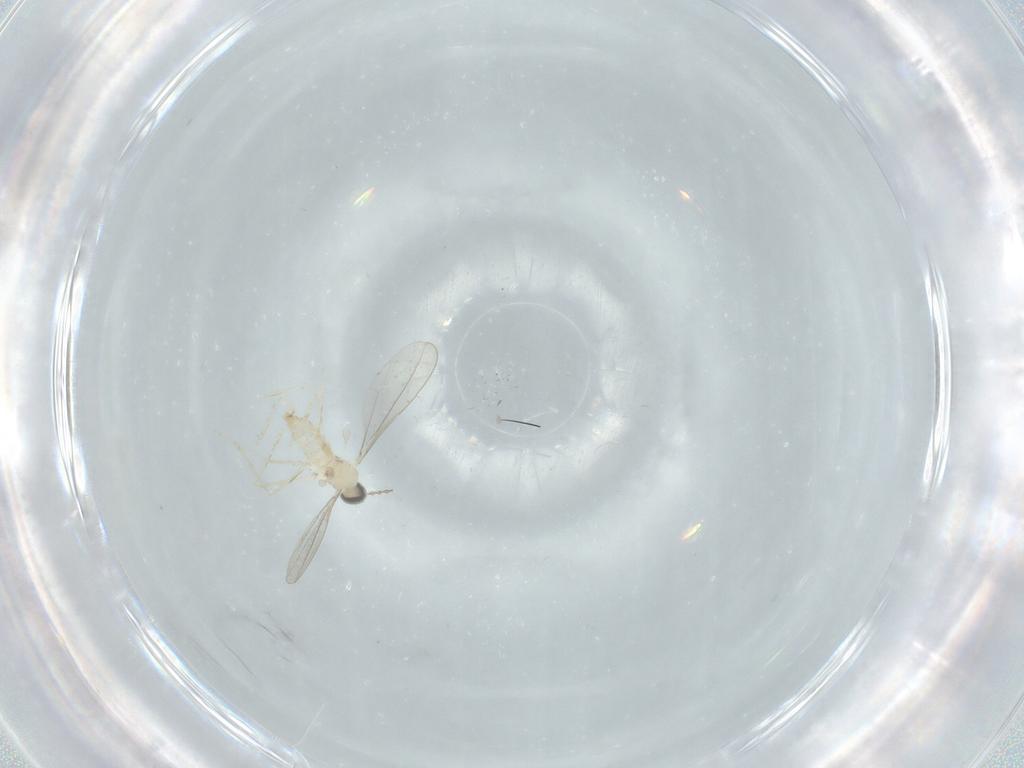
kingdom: Animalia
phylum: Arthropoda
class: Insecta
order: Diptera
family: Cecidomyiidae
